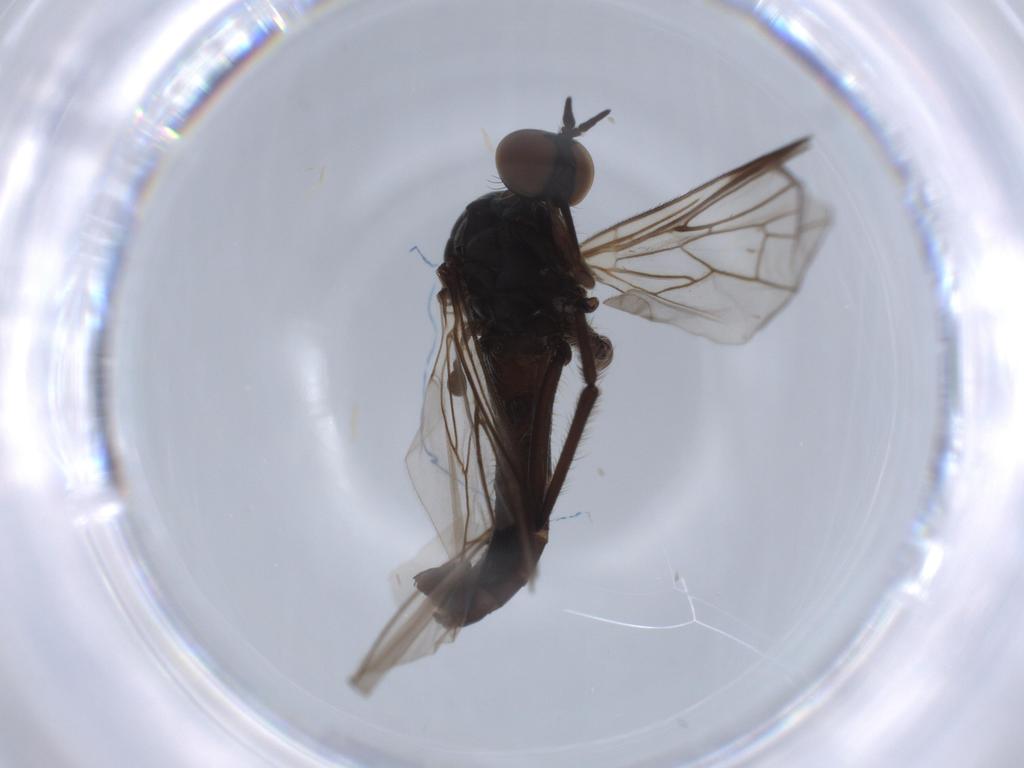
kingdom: Animalia
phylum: Arthropoda
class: Insecta
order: Diptera
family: Empididae
